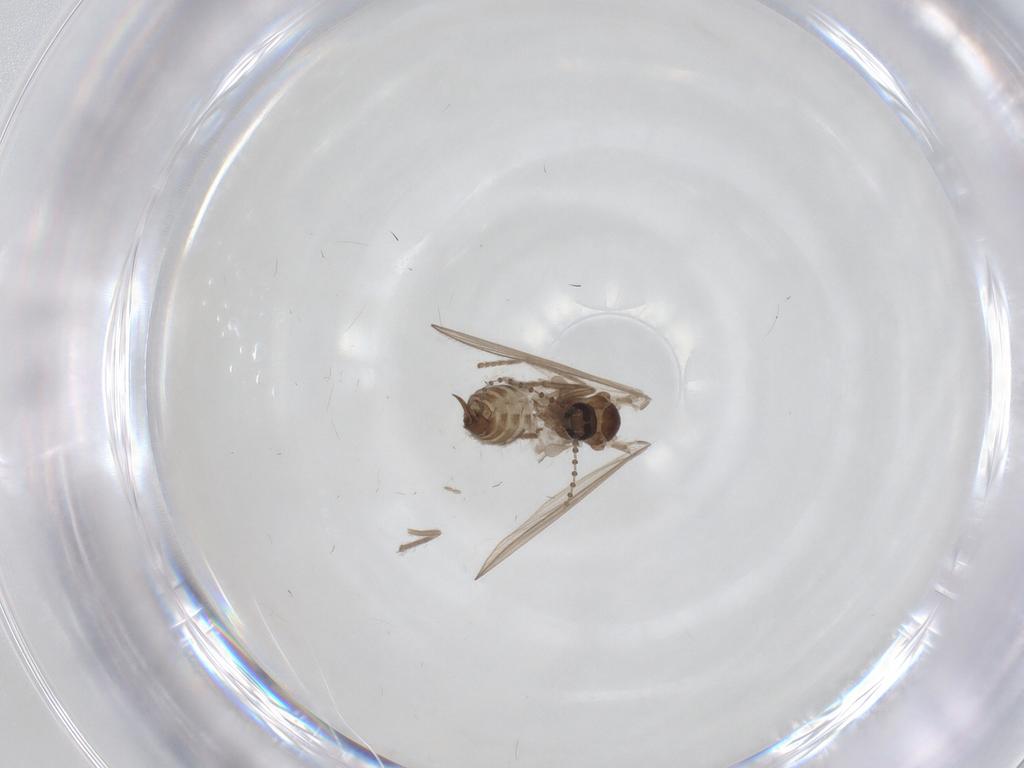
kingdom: Animalia
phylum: Arthropoda
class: Insecta
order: Diptera
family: Psychodidae
